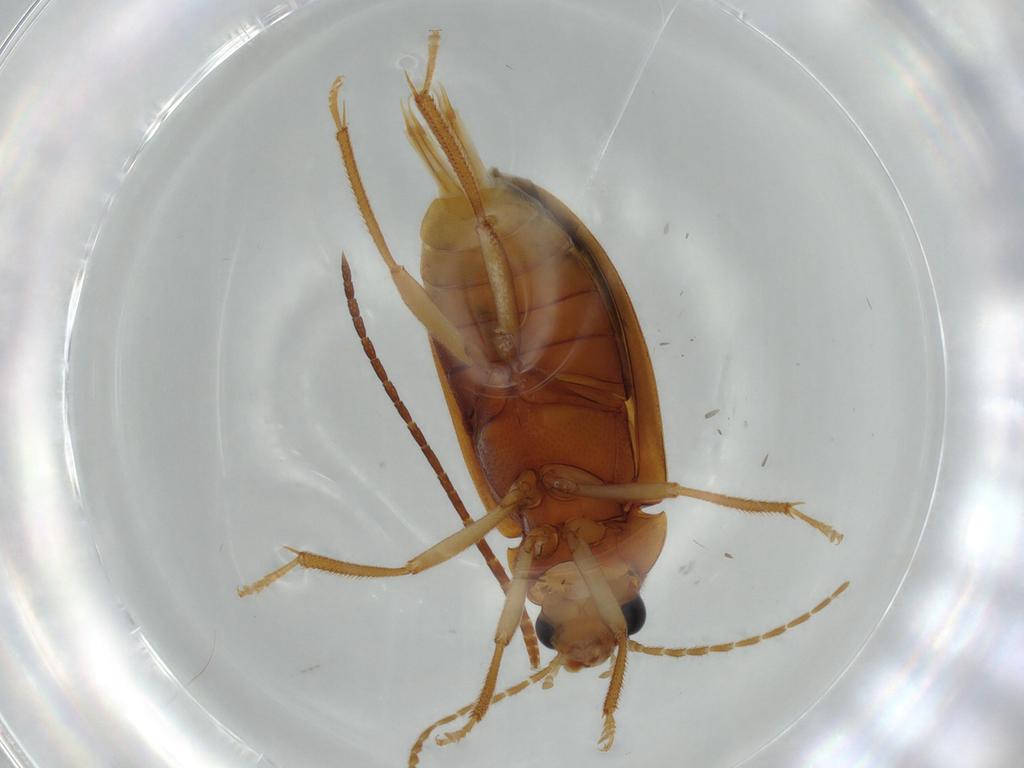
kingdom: Animalia
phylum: Arthropoda
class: Insecta
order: Coleoptera
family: Ptilodactylidae
